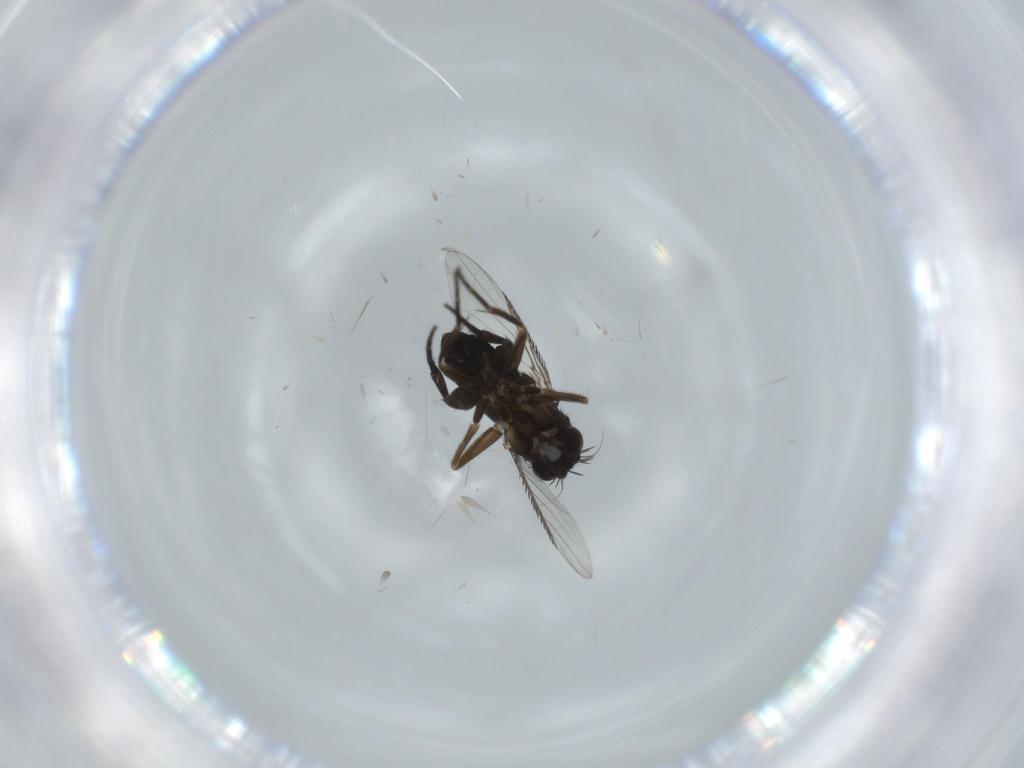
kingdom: Animalia
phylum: Arthropoda
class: Insecta
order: Diptera
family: Phoridae
